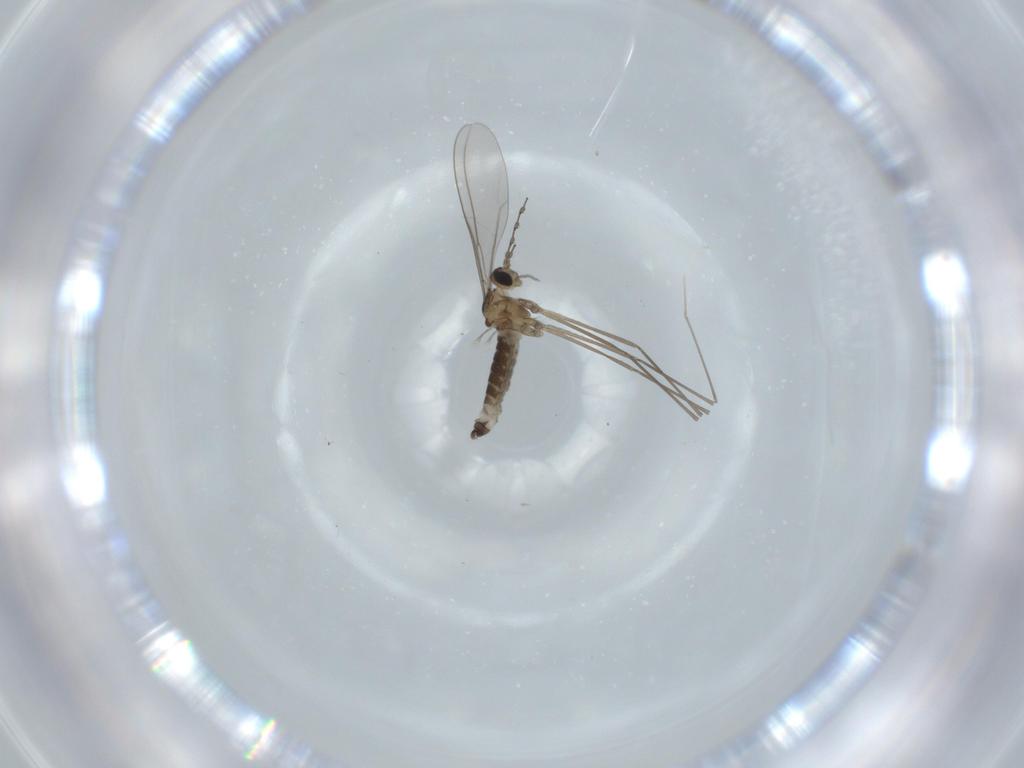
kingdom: Animalia
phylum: Arthropoda
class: Insecta
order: Diptera
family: Cecidomyiidae
